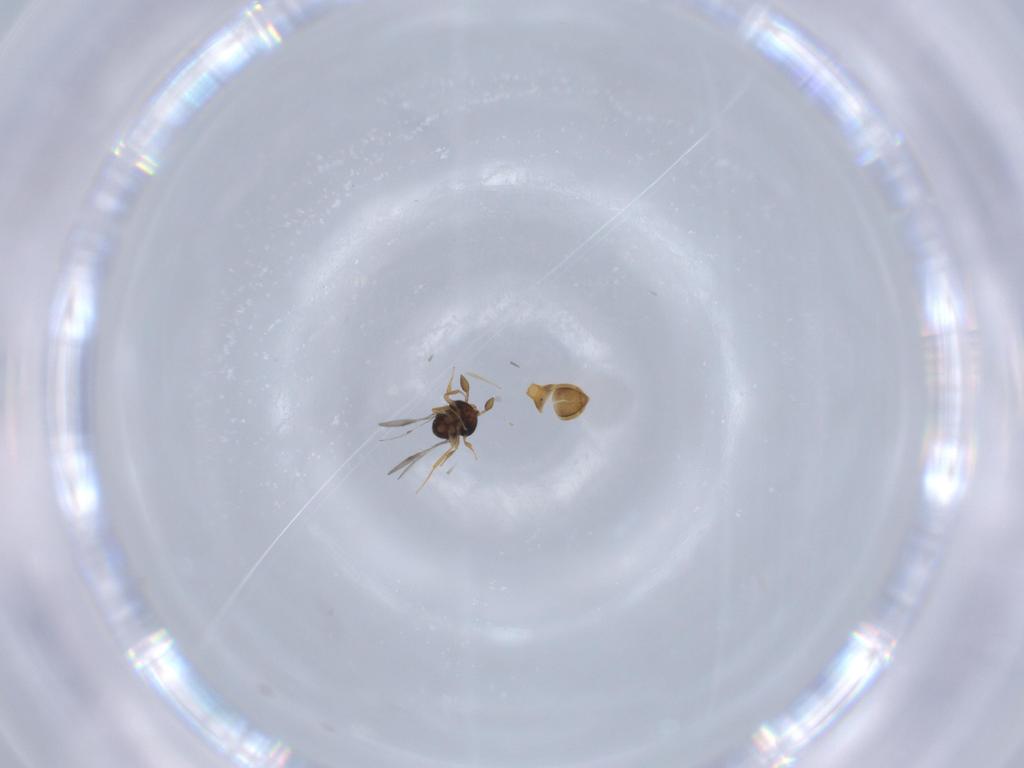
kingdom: Animalia
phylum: Arthropoda
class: Insecta
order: Hymenoptera
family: Scelionidae
